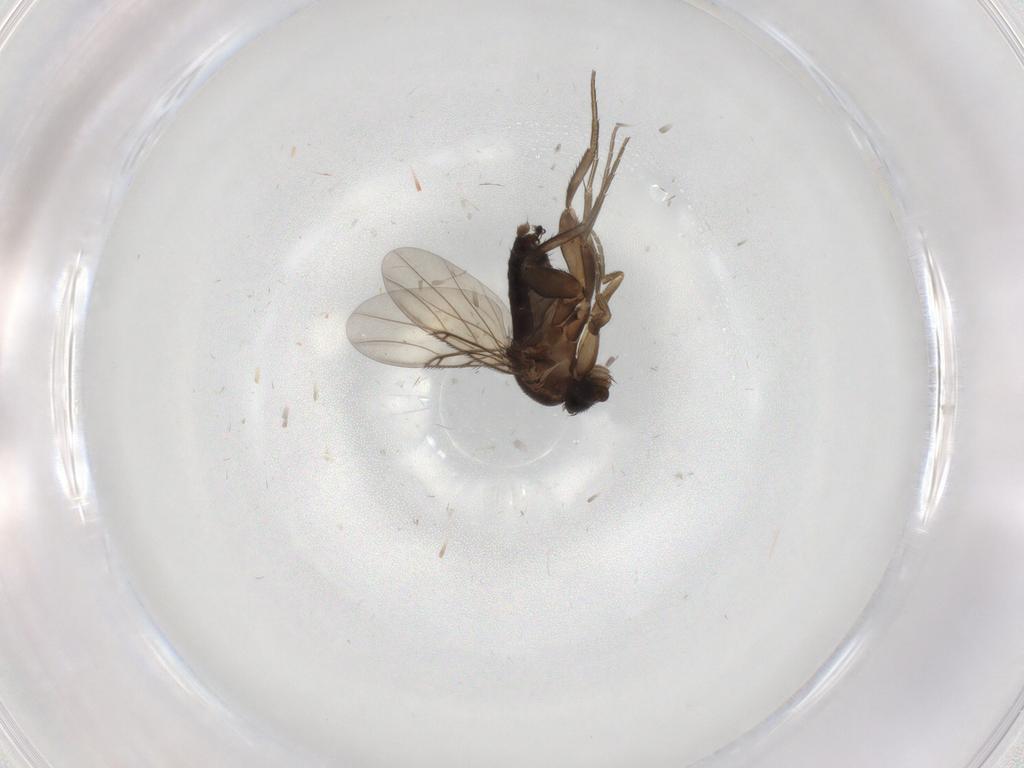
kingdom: Animalia
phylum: Arthropoda
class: Insecta
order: Diptera
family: Phoridae
